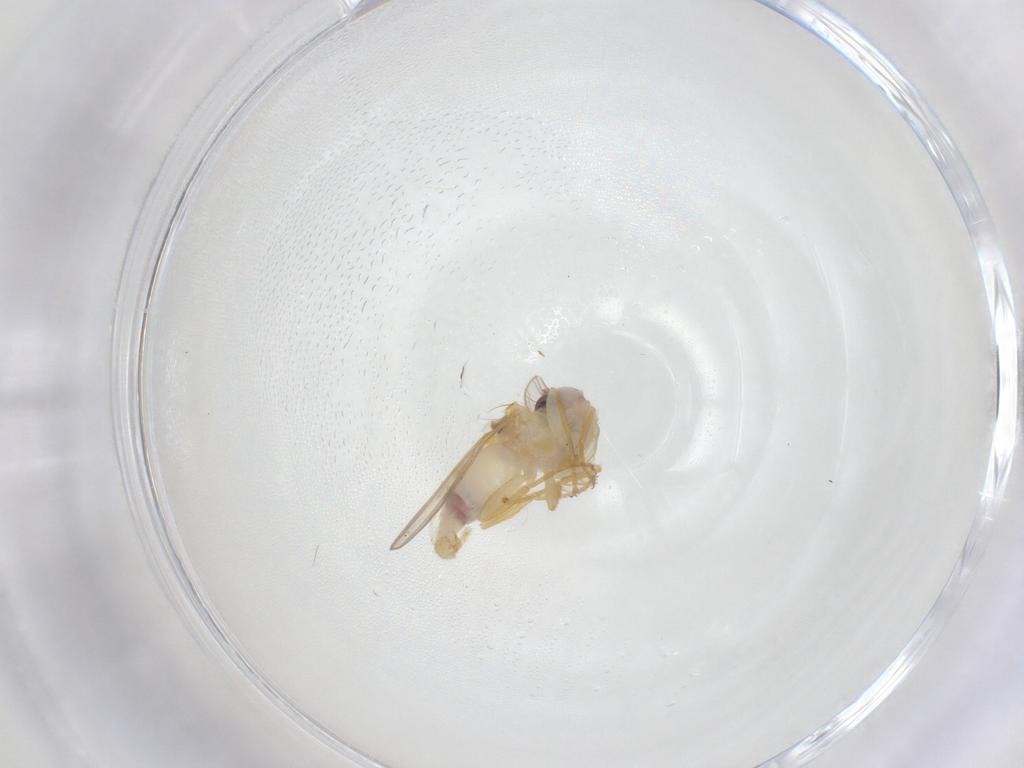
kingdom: Animalia
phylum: Arthropoda
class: Insecta
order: Diptera
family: Chyromyidae
